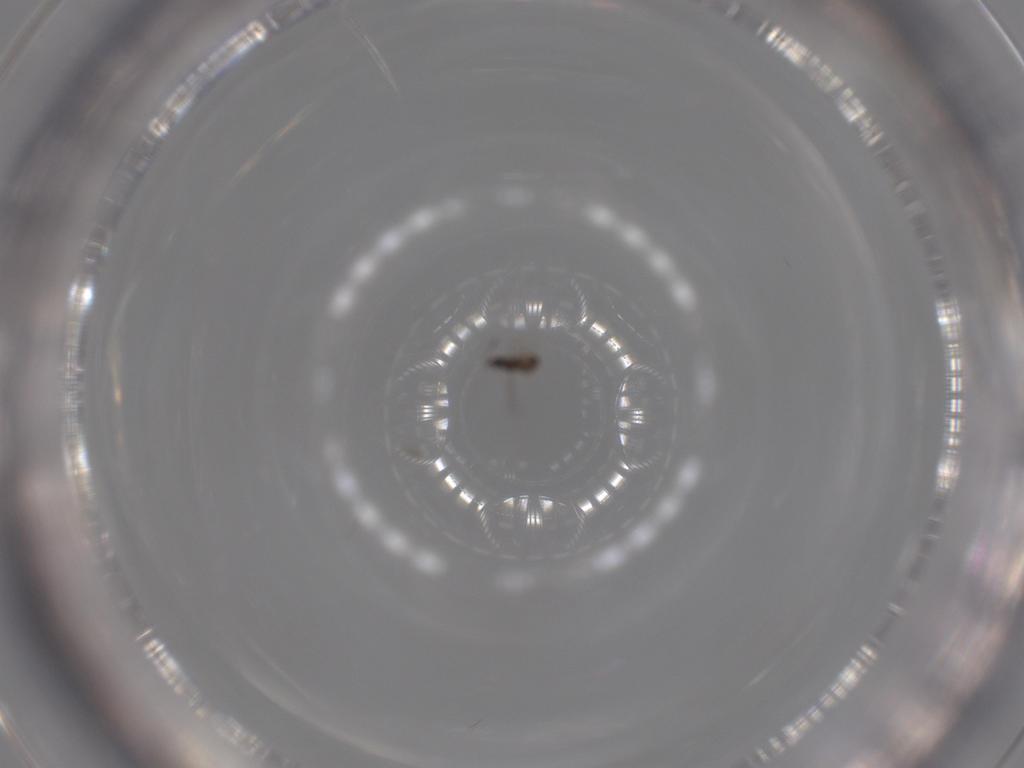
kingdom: Animalia
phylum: Arthropoda
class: Insecta
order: Hymenoptera
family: Mymaridae
